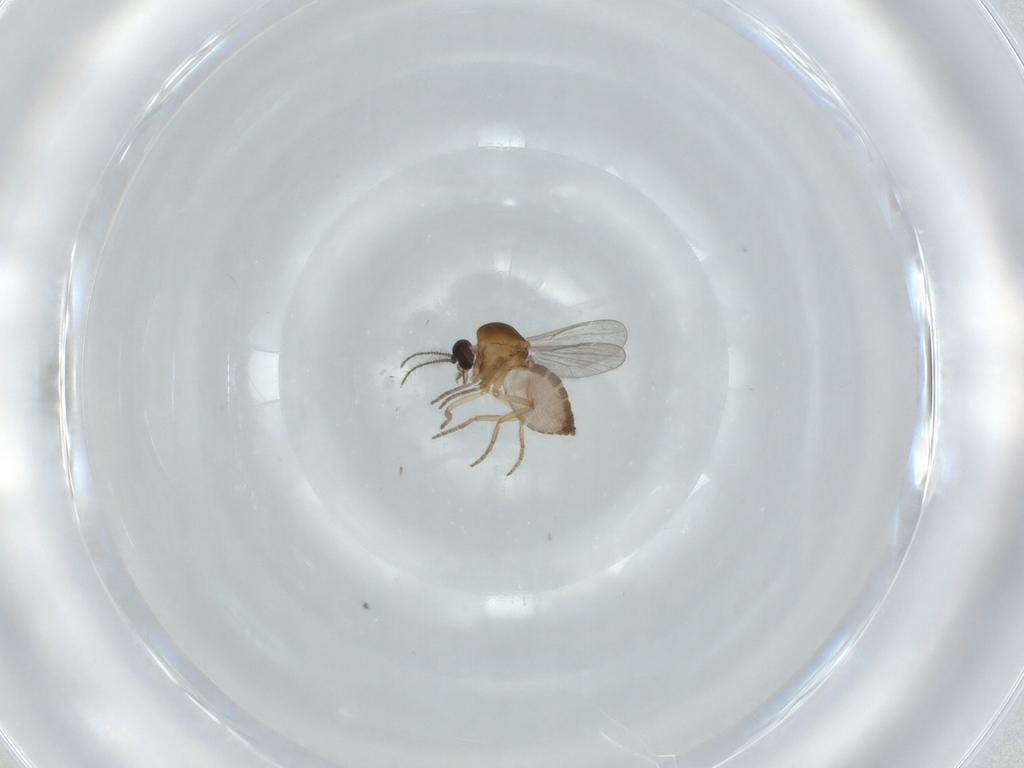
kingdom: Animalia
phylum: Arthropoda
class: Insecta
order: Diptera
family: Ceratopogonidae
